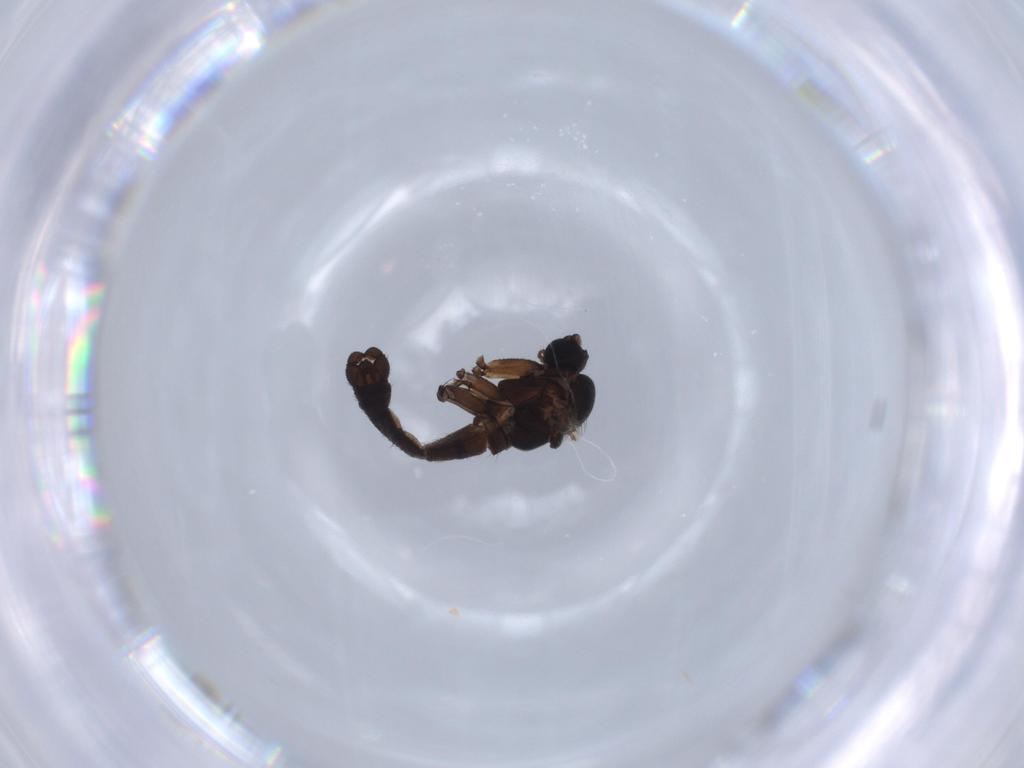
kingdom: Animalia
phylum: Arthropoda
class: Insecta
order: Diptera
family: Sciaridae
